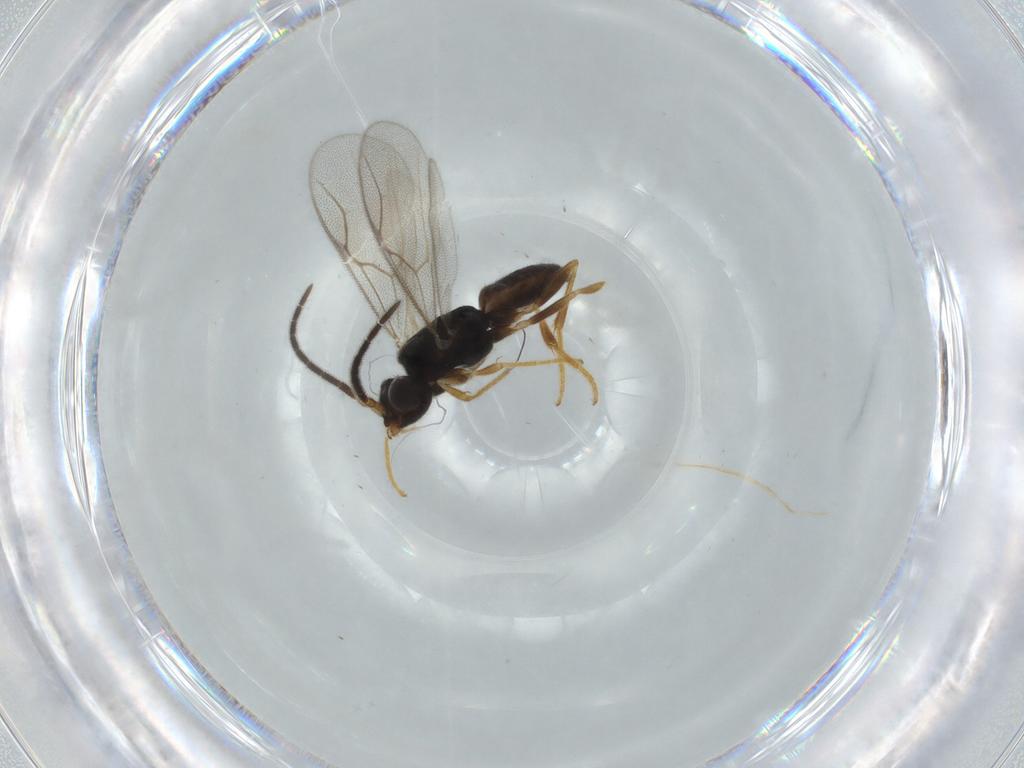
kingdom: Animalia
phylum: Arthropoda
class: Insecta
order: Hymenoptera
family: Dryinidae
